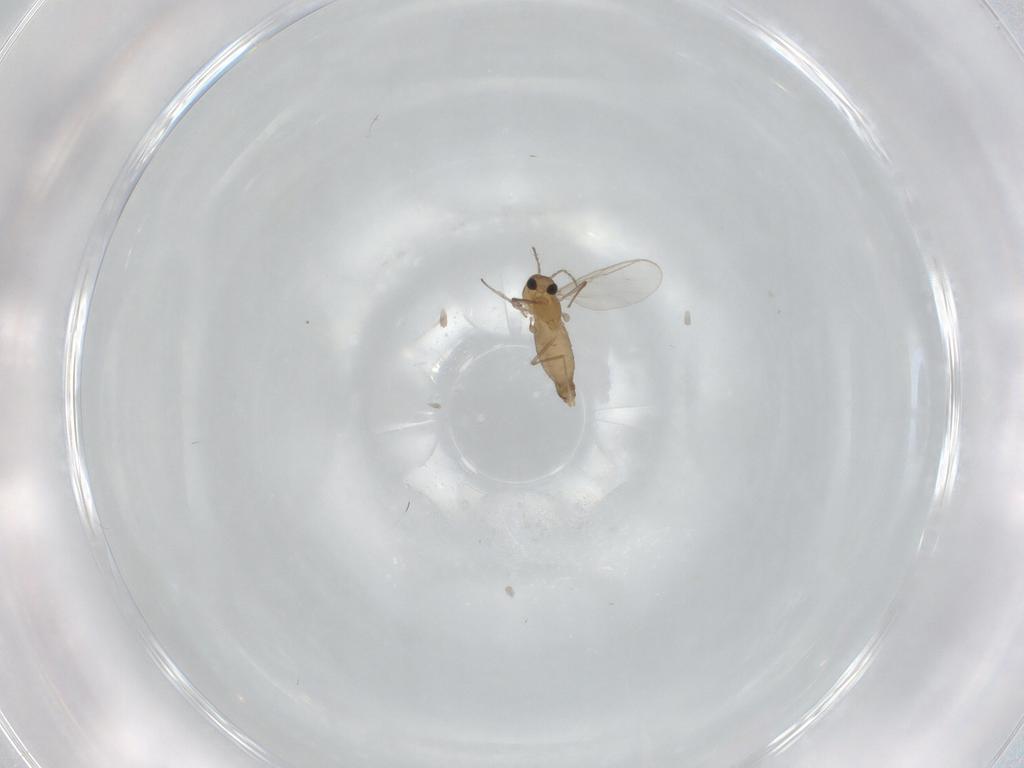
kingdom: Animalia
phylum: Arthropoda
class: Insecta
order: Diptera
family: Chironomidae
